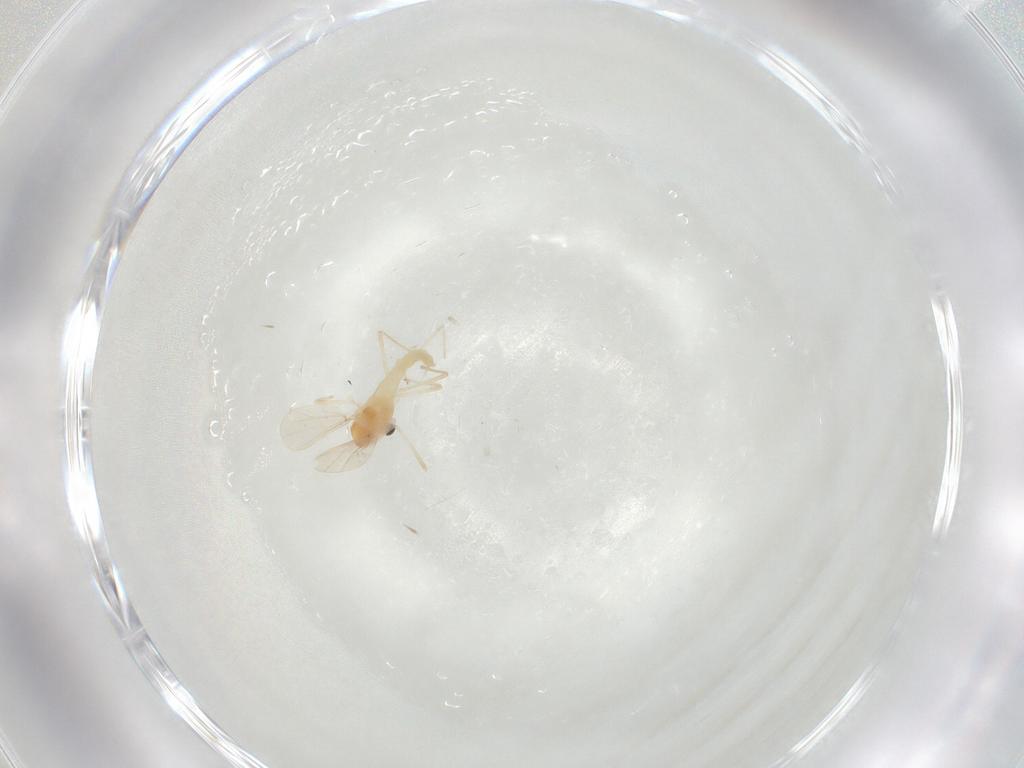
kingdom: Animalia
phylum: Arthropoda
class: Insecta
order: Diptera
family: Chironomidae
